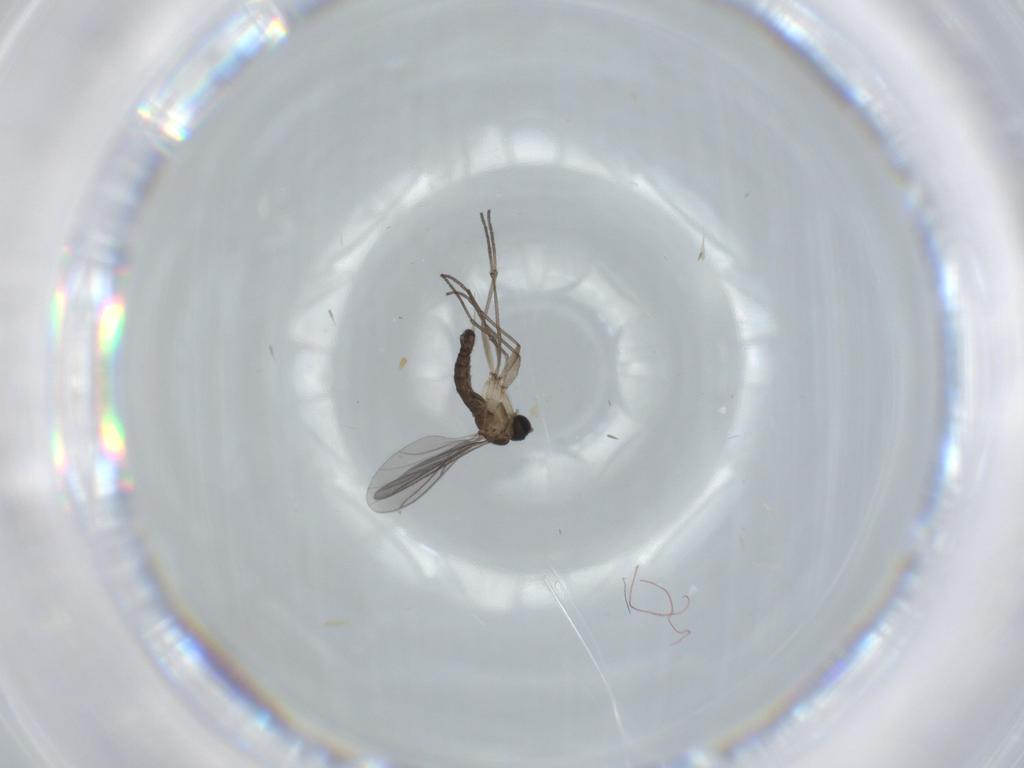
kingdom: Animalia
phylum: Arthropoda
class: Insecta
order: Diptera
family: Sciaridae
